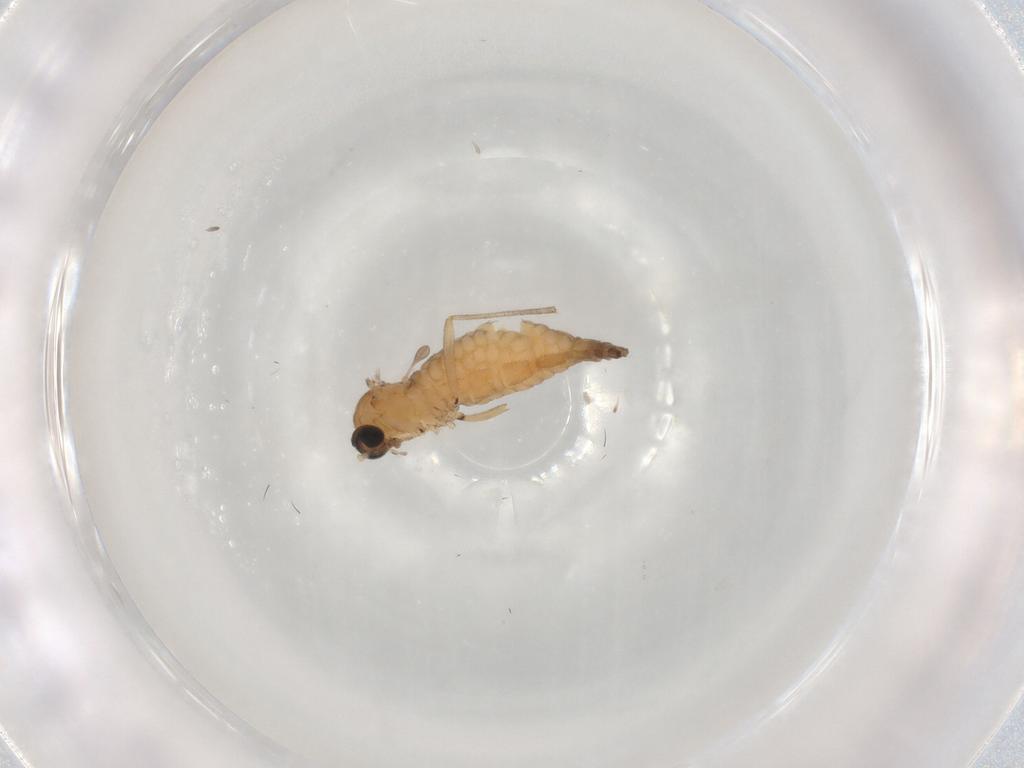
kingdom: Animalia
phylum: Arthropoda
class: Insecta
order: Diptera
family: Sciaridae
